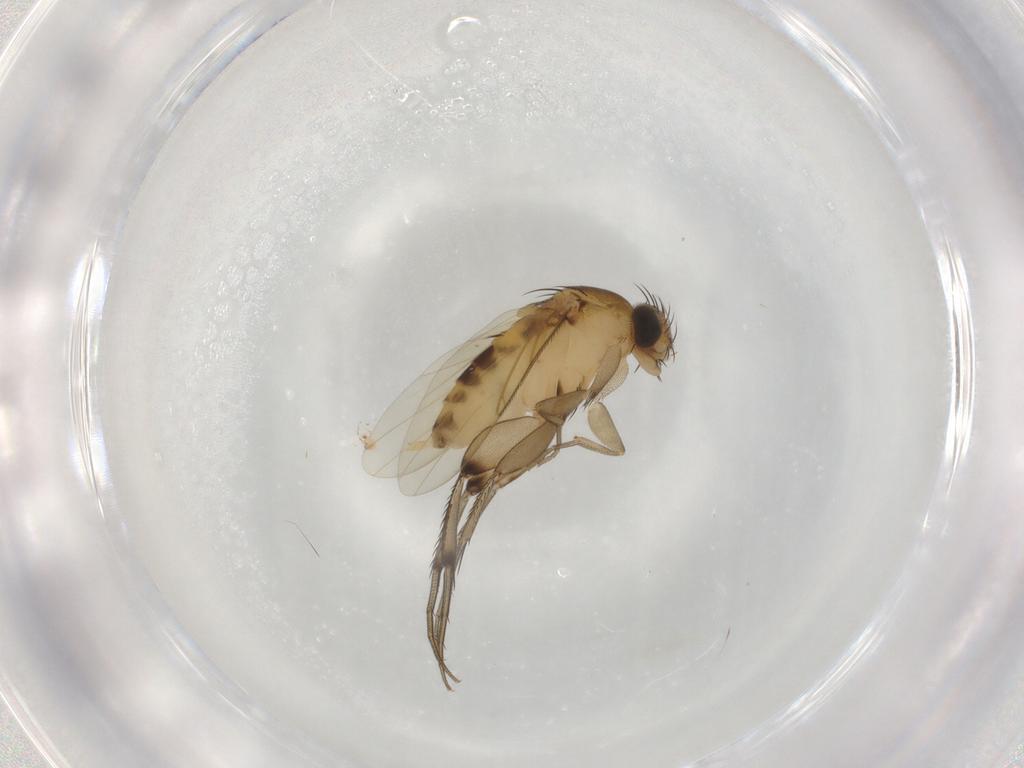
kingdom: Animalia
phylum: Arthropoda
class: Insecta
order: Diptera
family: Phoridae
